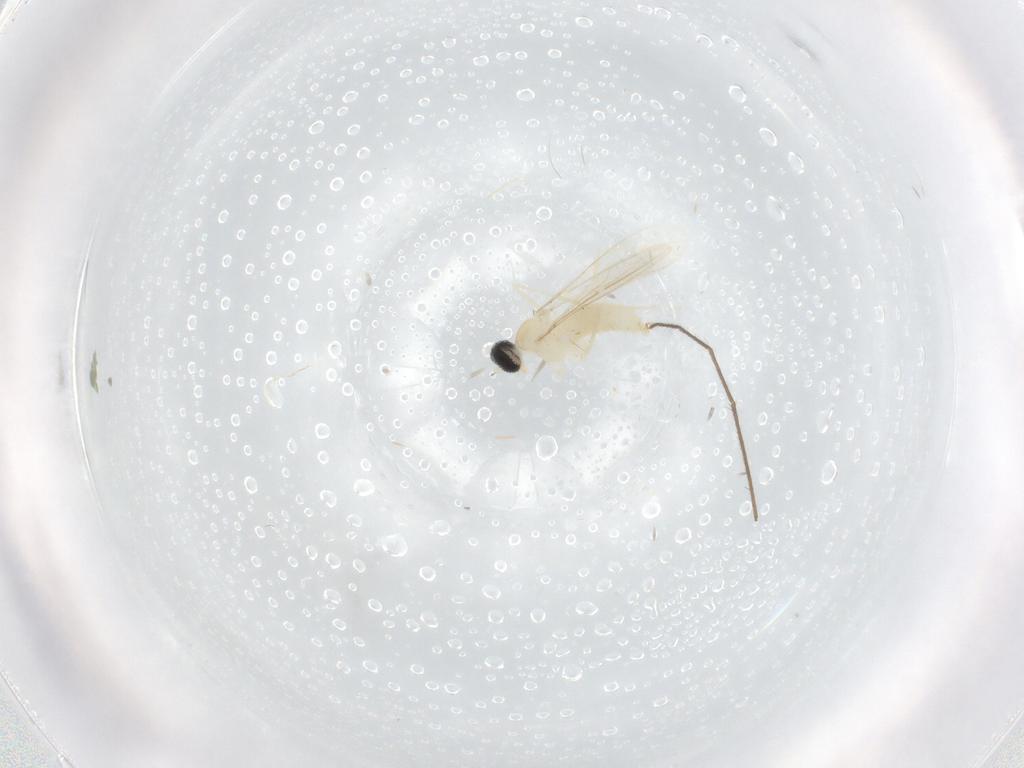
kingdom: Animalia
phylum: Arthropoda
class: Insecta
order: Diptera
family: Cecidomyiidae
